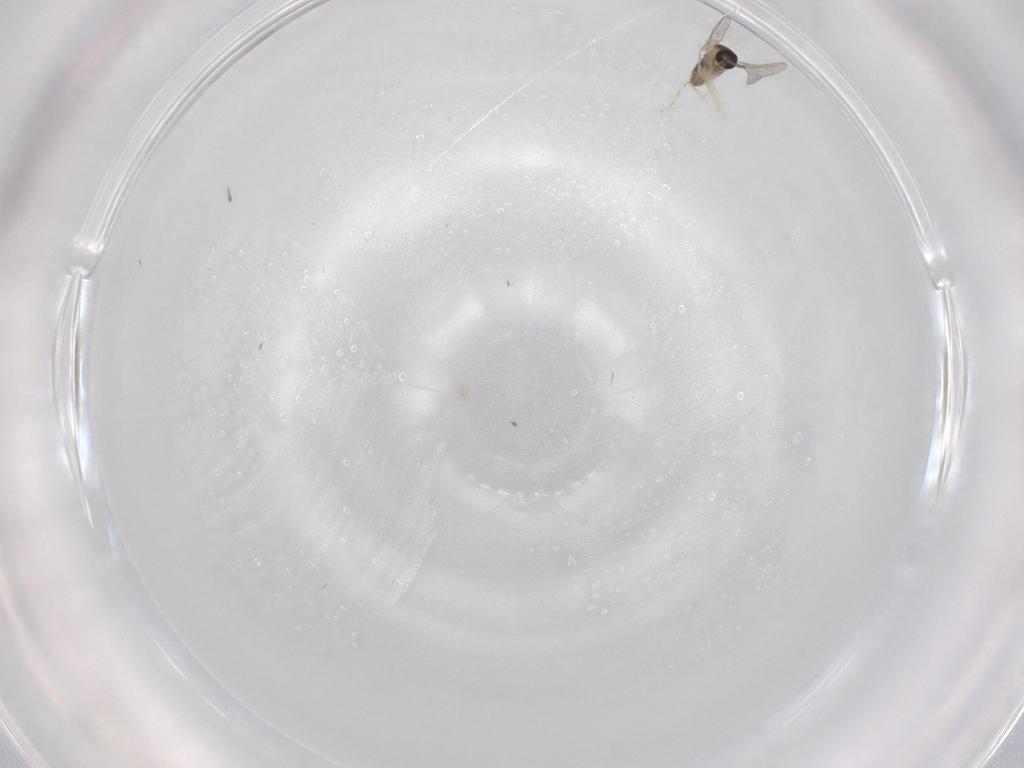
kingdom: Animalia
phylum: Arthropoda
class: Insecta
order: Diptera
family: Cecidomyiidae
